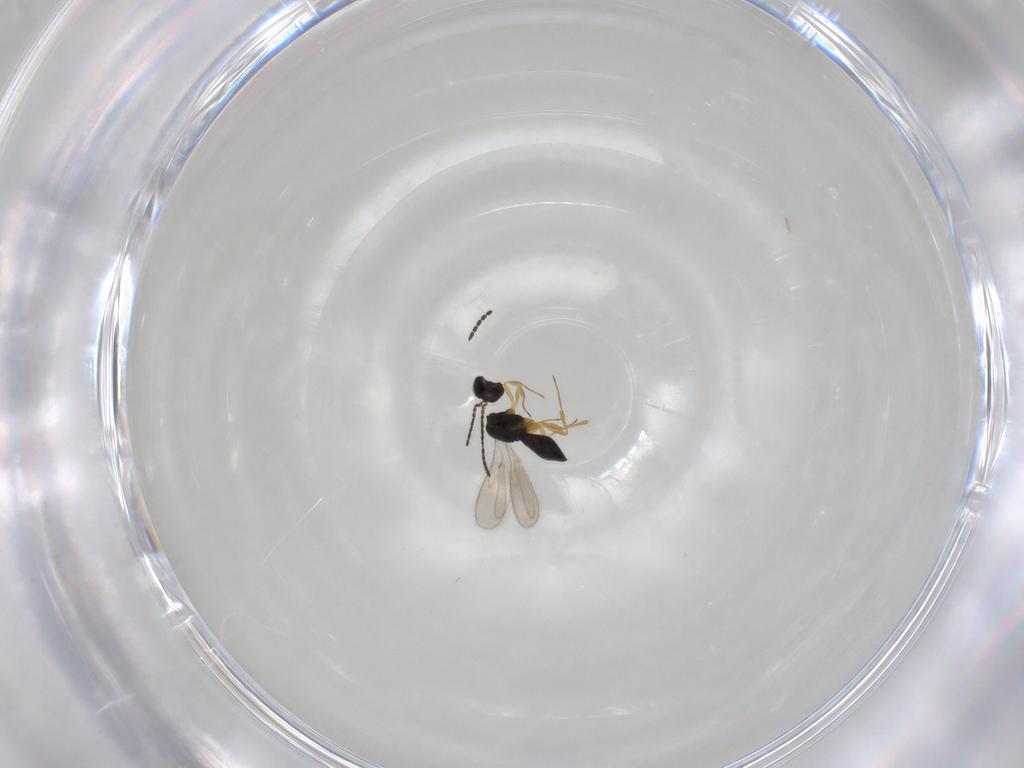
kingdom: Animalia
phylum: Arthropoda
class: Insecta
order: Hymenoptera
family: Scelionidae
